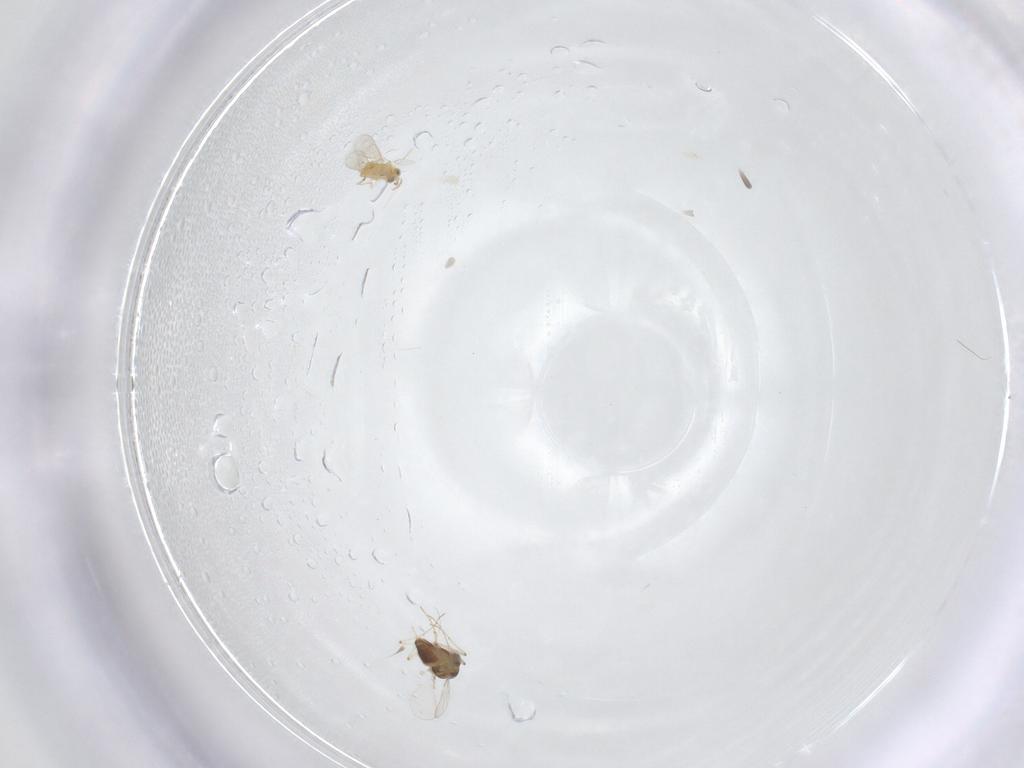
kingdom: Animalia
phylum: Arthropoda
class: Insecta
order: Diptera
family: Chironomidae
